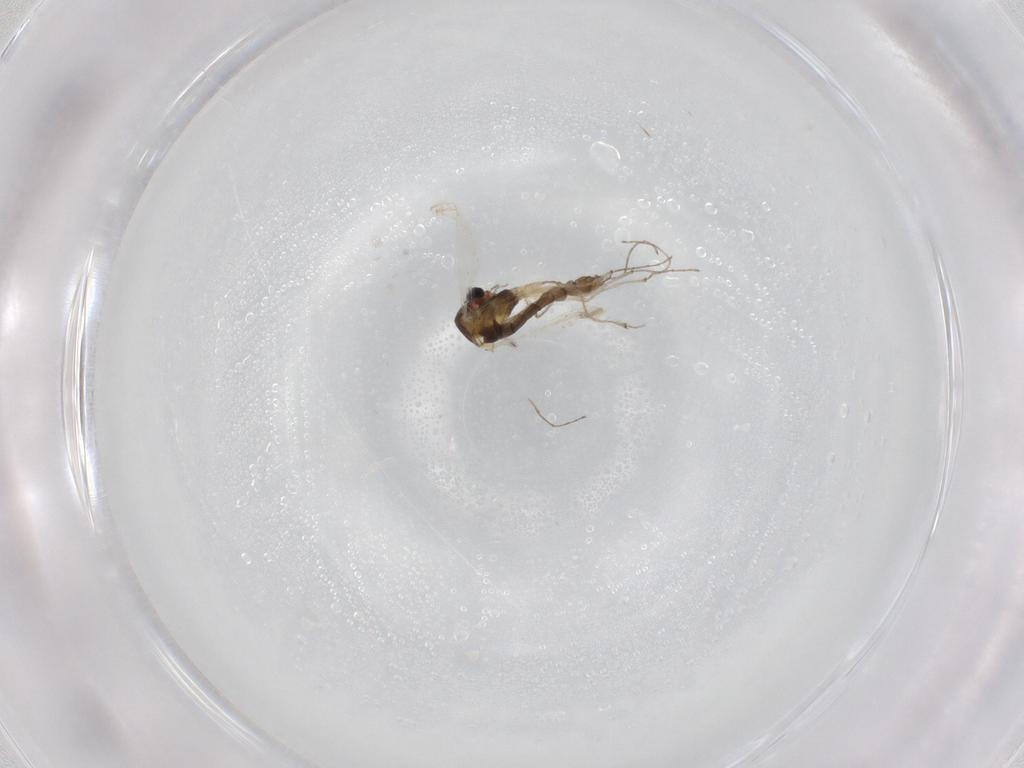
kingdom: Animalia
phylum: Arthropoda
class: Insecta
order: Diptera
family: Chironomidae
